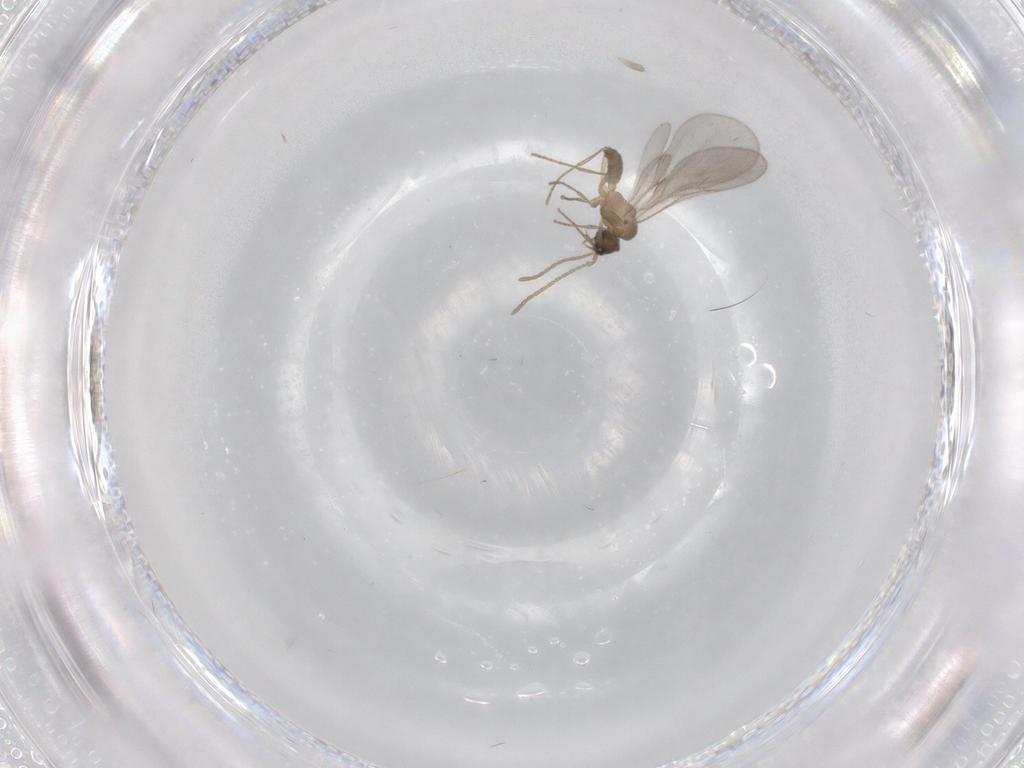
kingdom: Animalia
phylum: Arthropoda
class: Insecta
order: Hymenoptera
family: Formicidae
